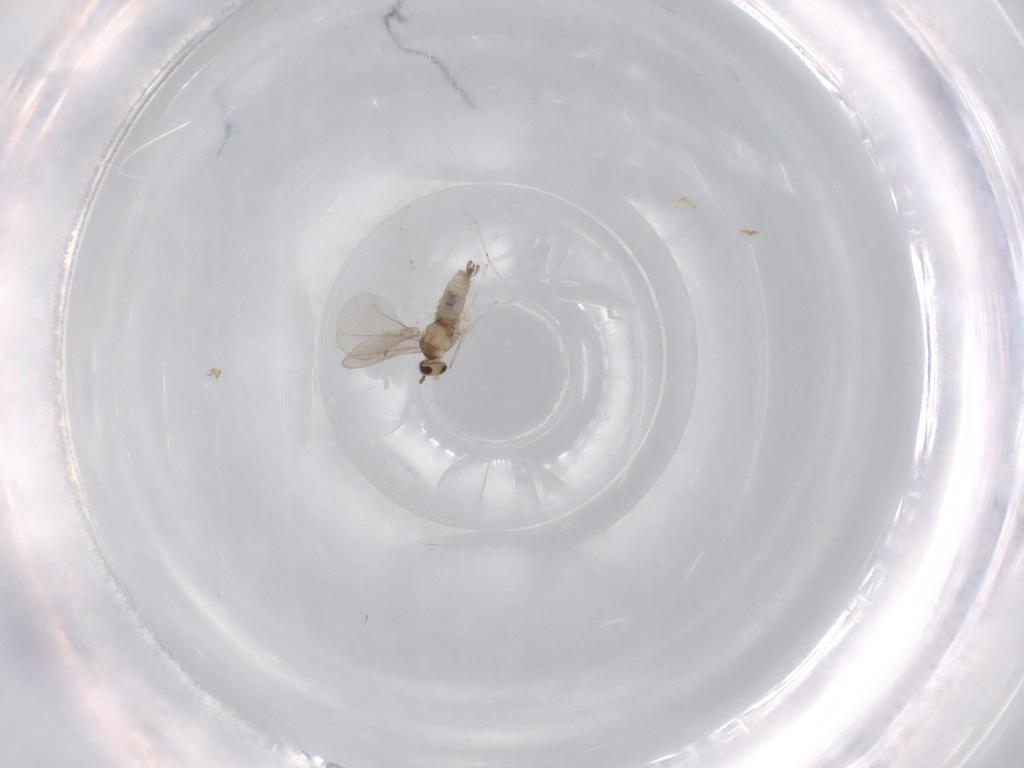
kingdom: Animalia
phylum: Arthropoda
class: Insecta
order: Diptera
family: Cecidomyiidae
